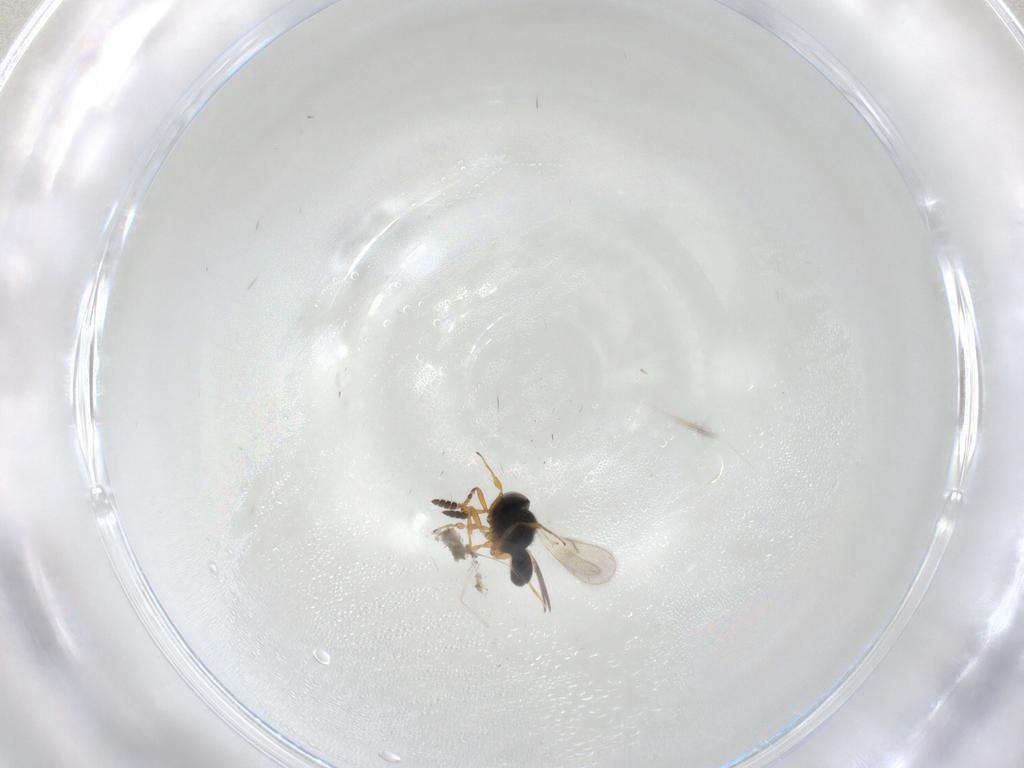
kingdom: Animalia
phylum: Arthropoda
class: Insecta
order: Hymenoptera
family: Scelionidae
